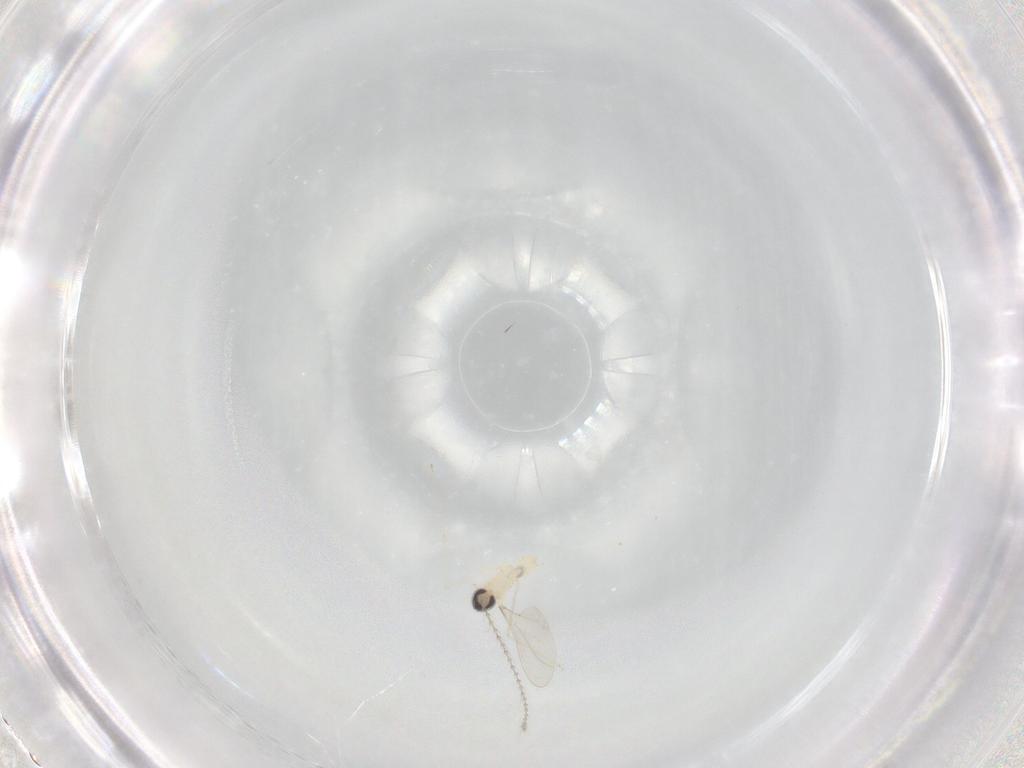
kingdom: Animalia
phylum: Arthropoda
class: Insecta
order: Diptera
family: Cecidomyiidae
